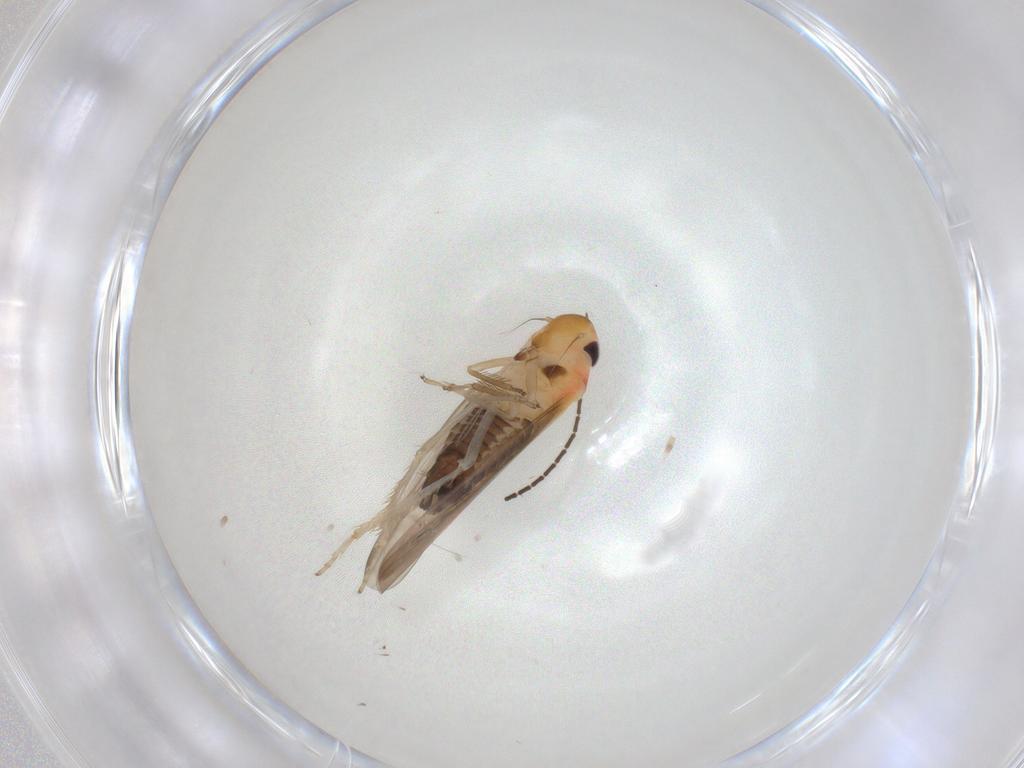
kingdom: Animalia
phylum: Arthropoda
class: Insecta
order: Hemiptera
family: Cicadellidae
